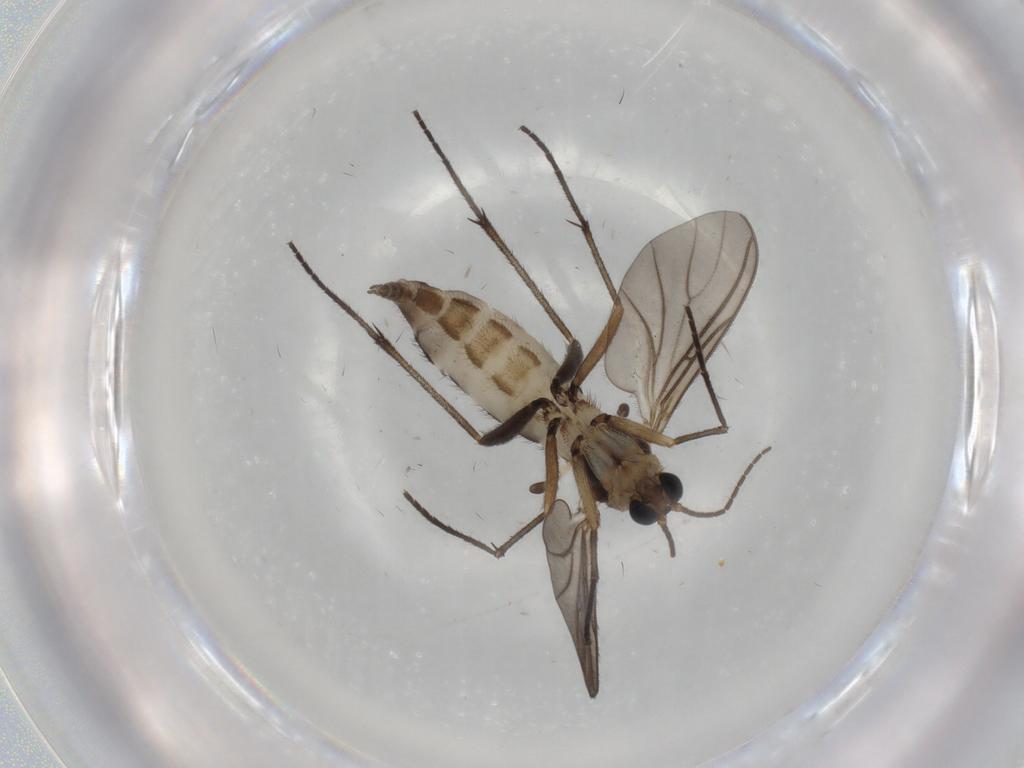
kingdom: Animalia
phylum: Arthropoda
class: Insecta
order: Diptera
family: Sciaridae
